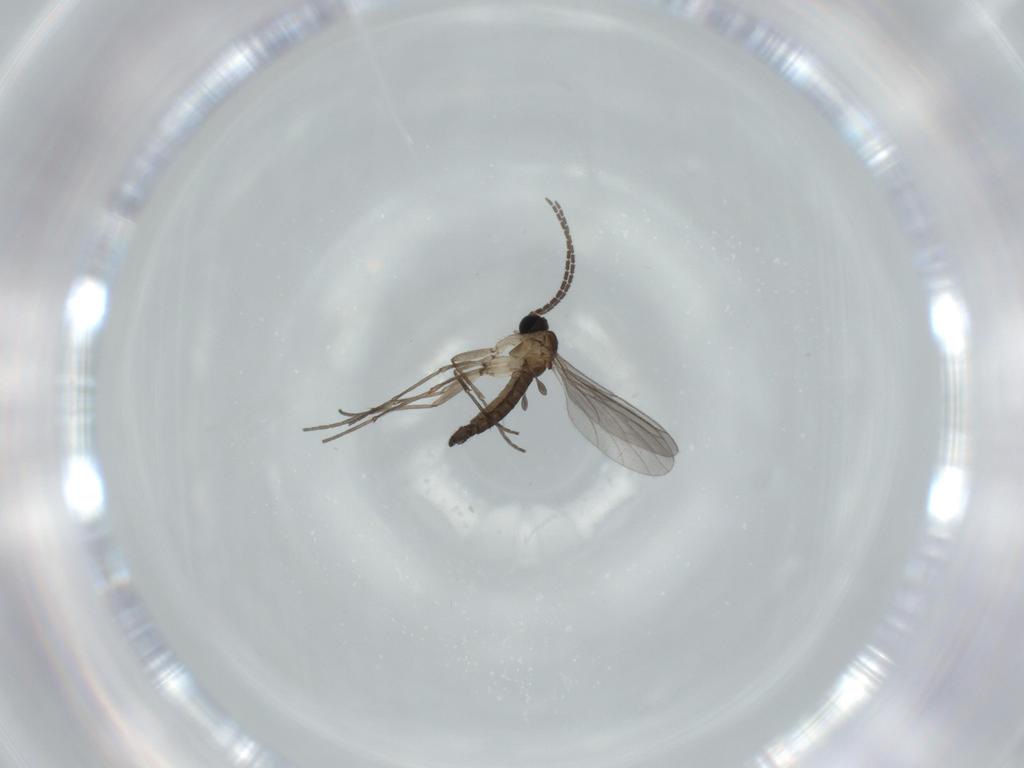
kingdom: Animalia
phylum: Arthropoda
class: Insecta
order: Diptera
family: Sciaridae
